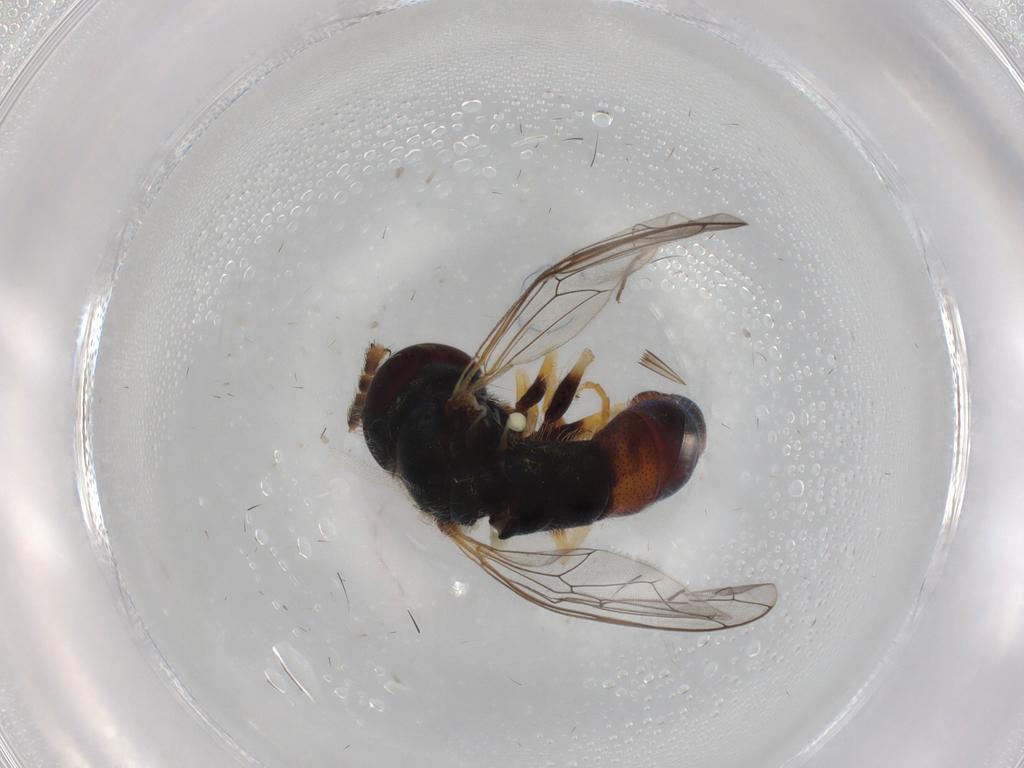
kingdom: Animalia
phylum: Arthropoda
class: Insecta
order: Diptera
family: Syrphidae
